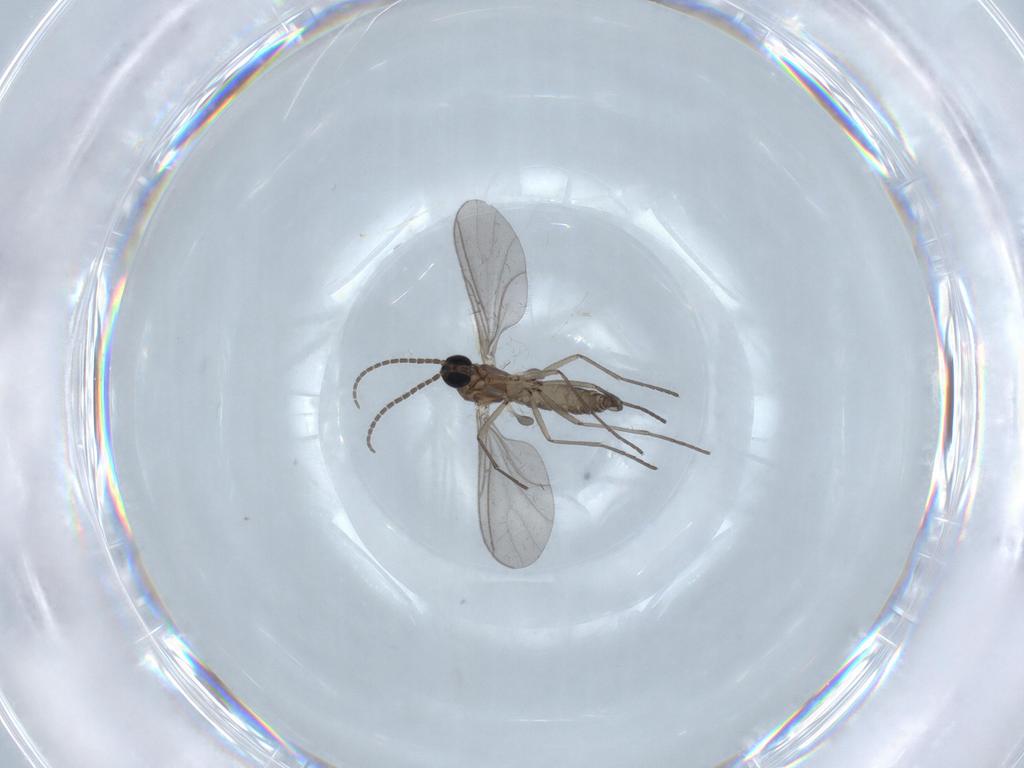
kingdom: Animalia
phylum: Arthropoda
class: Insecta
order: Diptera
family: Sciaridae
